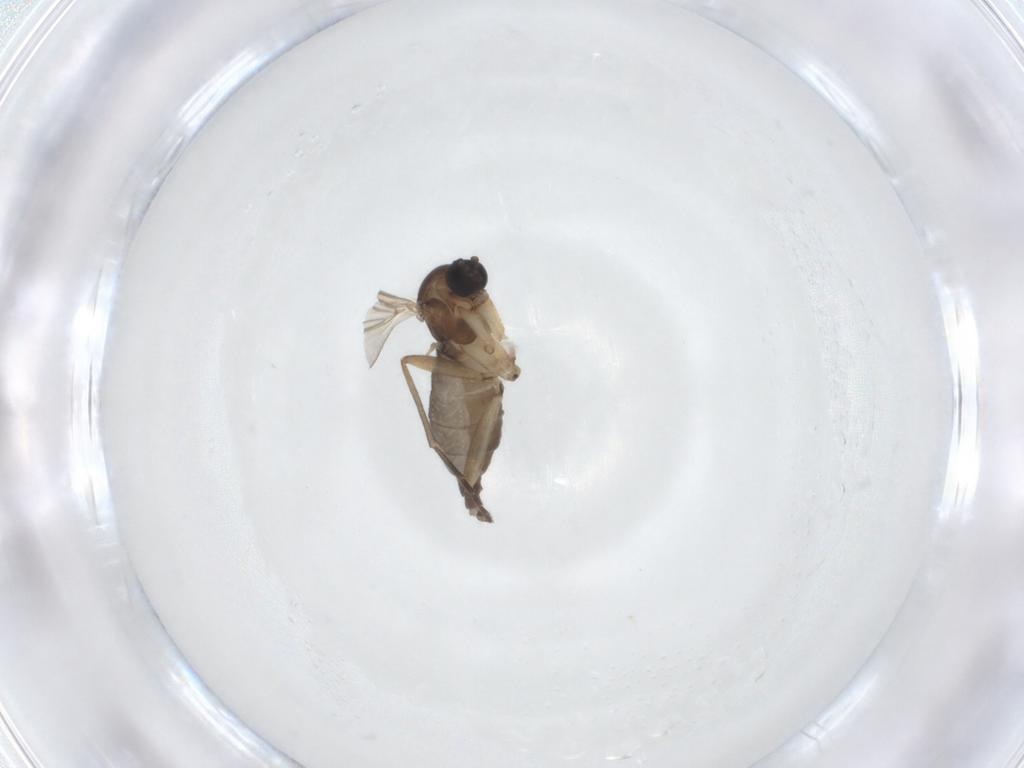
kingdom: Animalia
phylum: Arthropoda
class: Insecta
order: Diptera
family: Sciaridae
